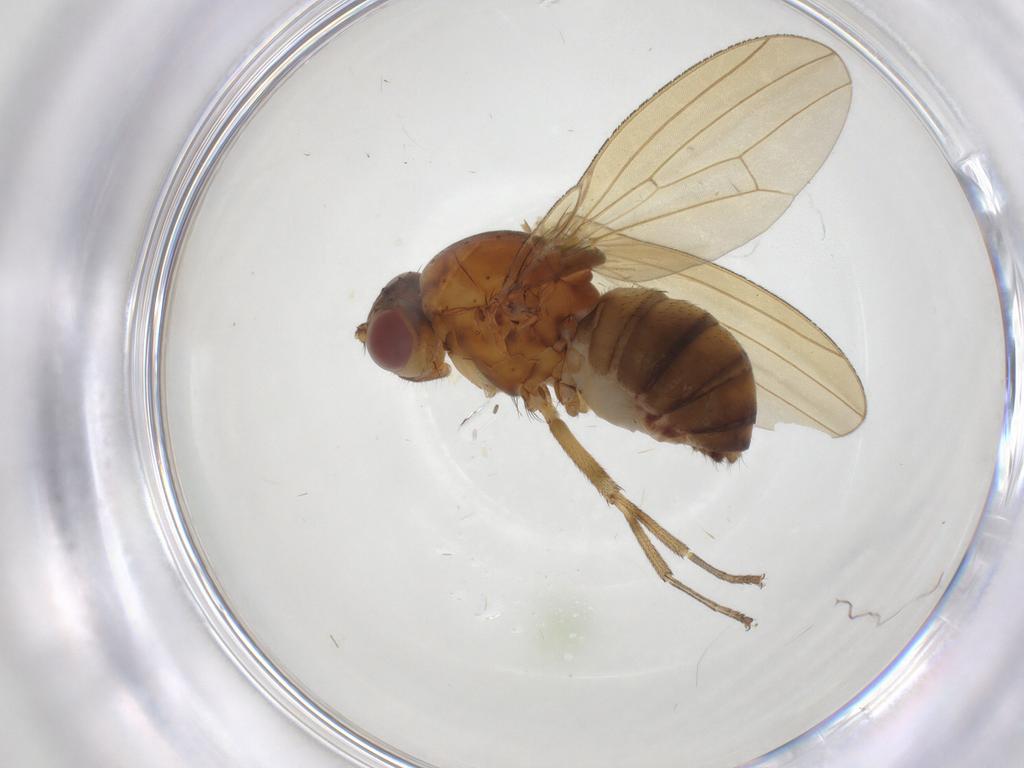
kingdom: Animalia
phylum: Arthropoda
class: Insecta
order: Diptera
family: Lauxaniidae
